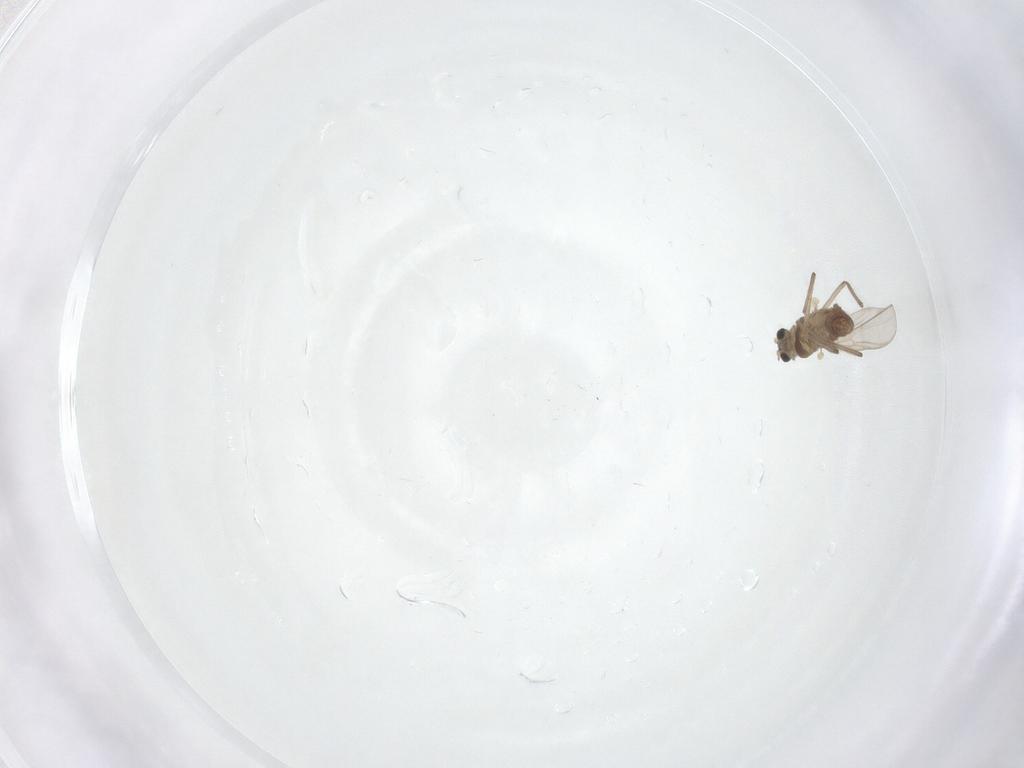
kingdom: Animalia
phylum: Arthropoda
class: Insecta
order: Diptera
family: Chironomidae
